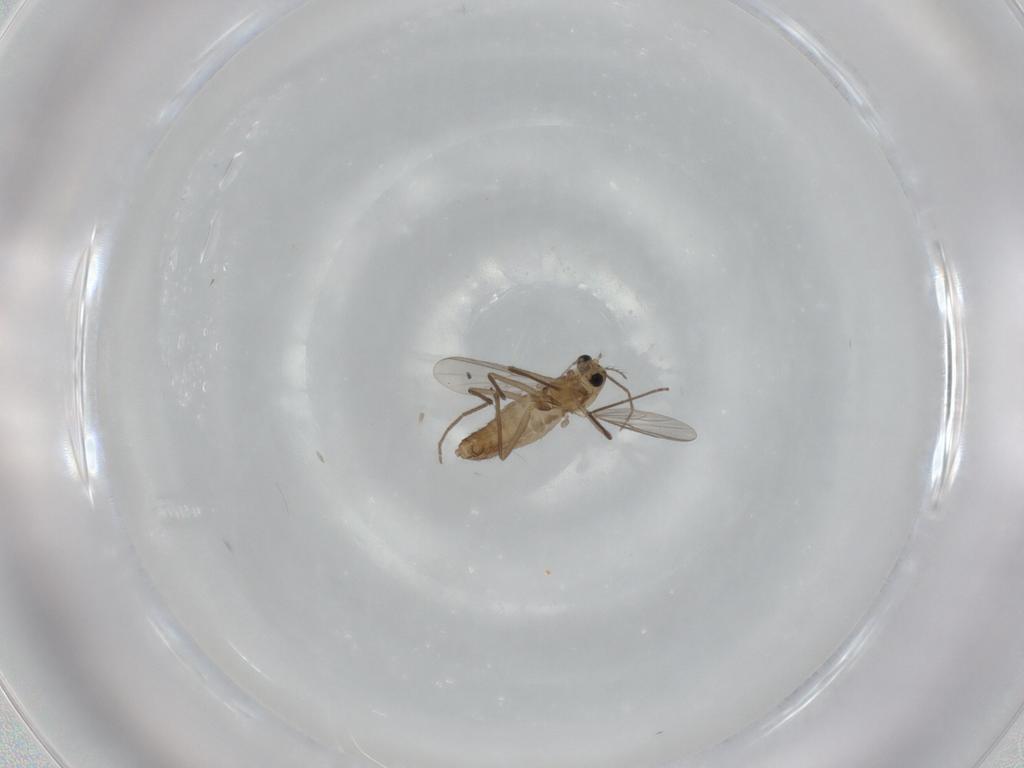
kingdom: Animalia
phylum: Arthropoda
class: Insecta
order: Diptera
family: Chironomidae
